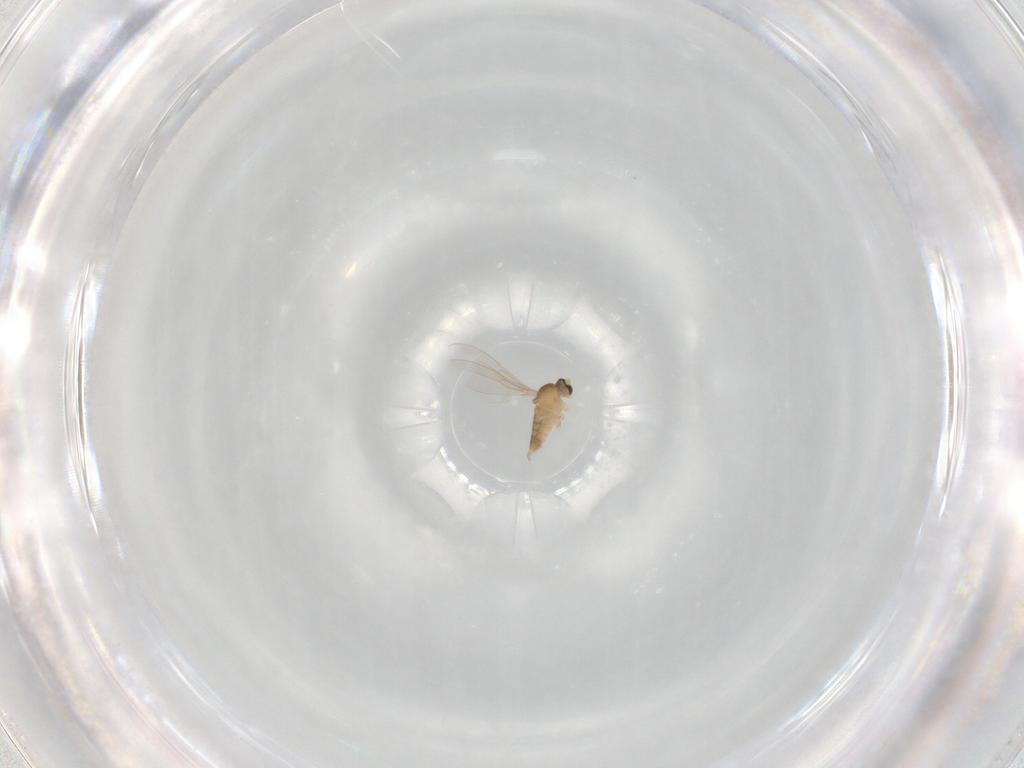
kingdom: Animalia
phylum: Arthropoda
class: Insecta
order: Diptera
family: Cecidomyiidae
